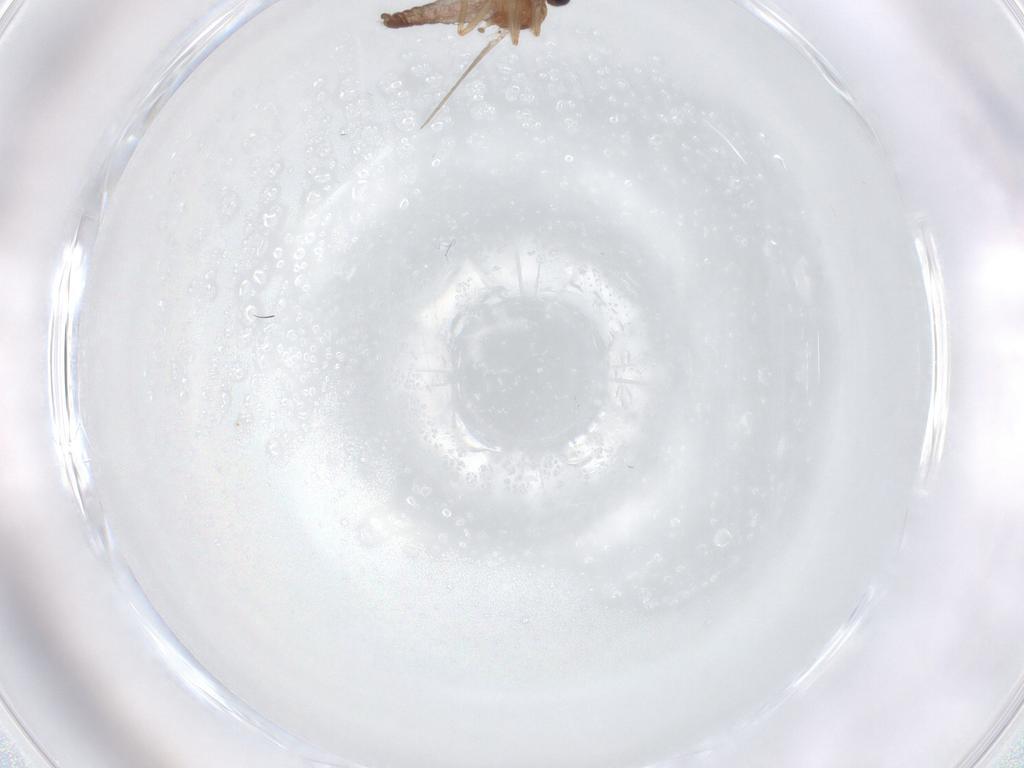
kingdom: Animalia
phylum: Arthropoda
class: Insecta
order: Diptera
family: Ceratopogonidae
